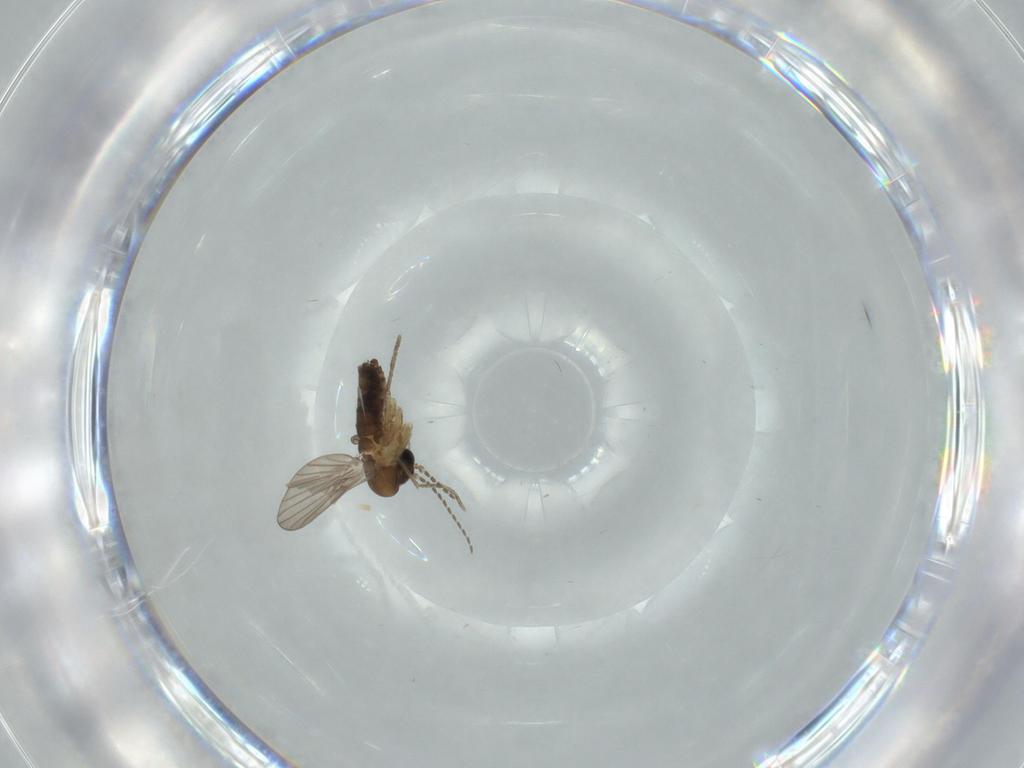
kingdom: Animalia
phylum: Arthropoda
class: Insecta
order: Diptera
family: Psychodidae
